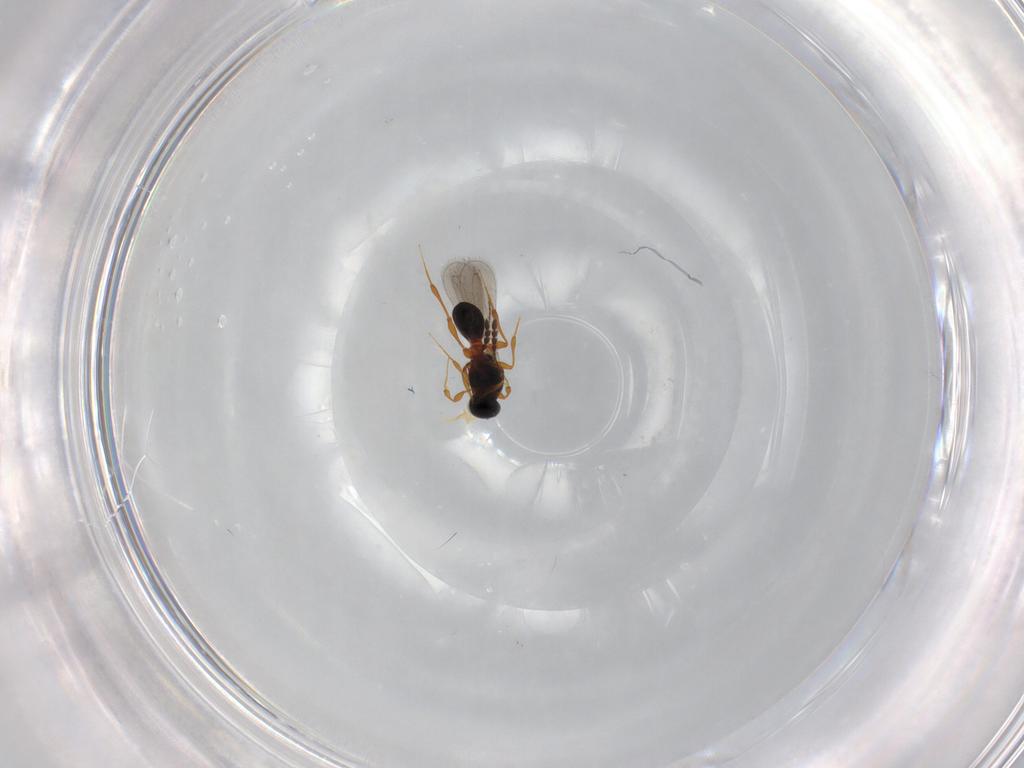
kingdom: Animalia
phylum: Arthropoda
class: Insecta
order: Hymenoptera
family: Platygastridae
